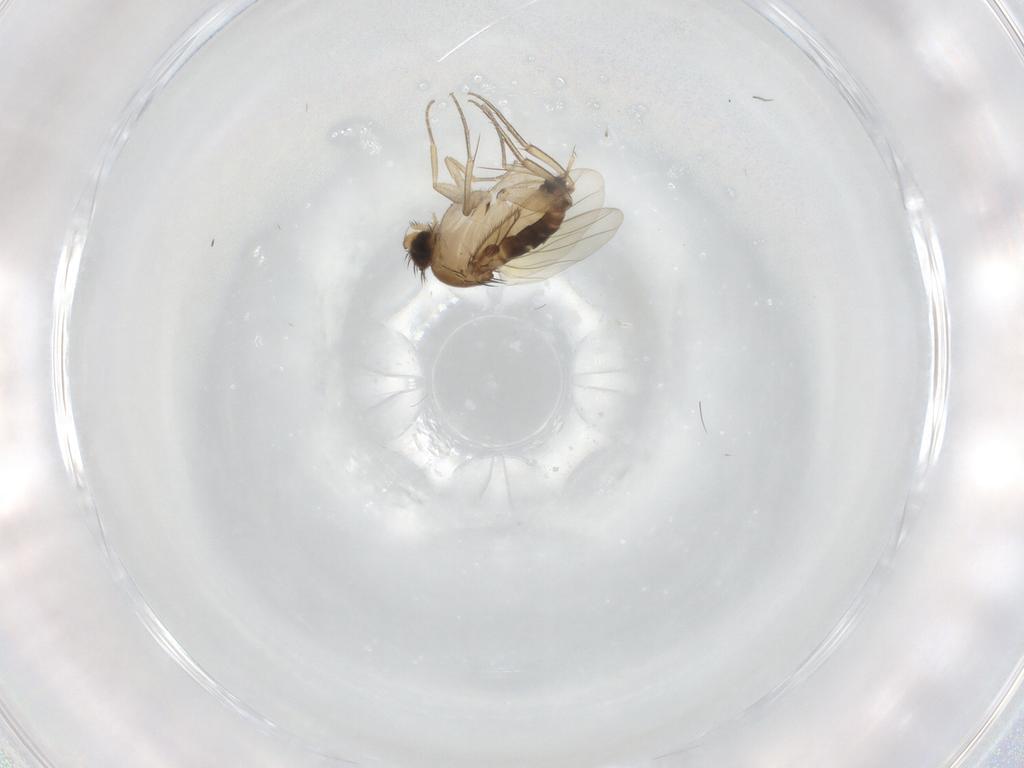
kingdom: Animalia
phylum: Arthropoda
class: Insecta
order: Diptera
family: Phoridae
